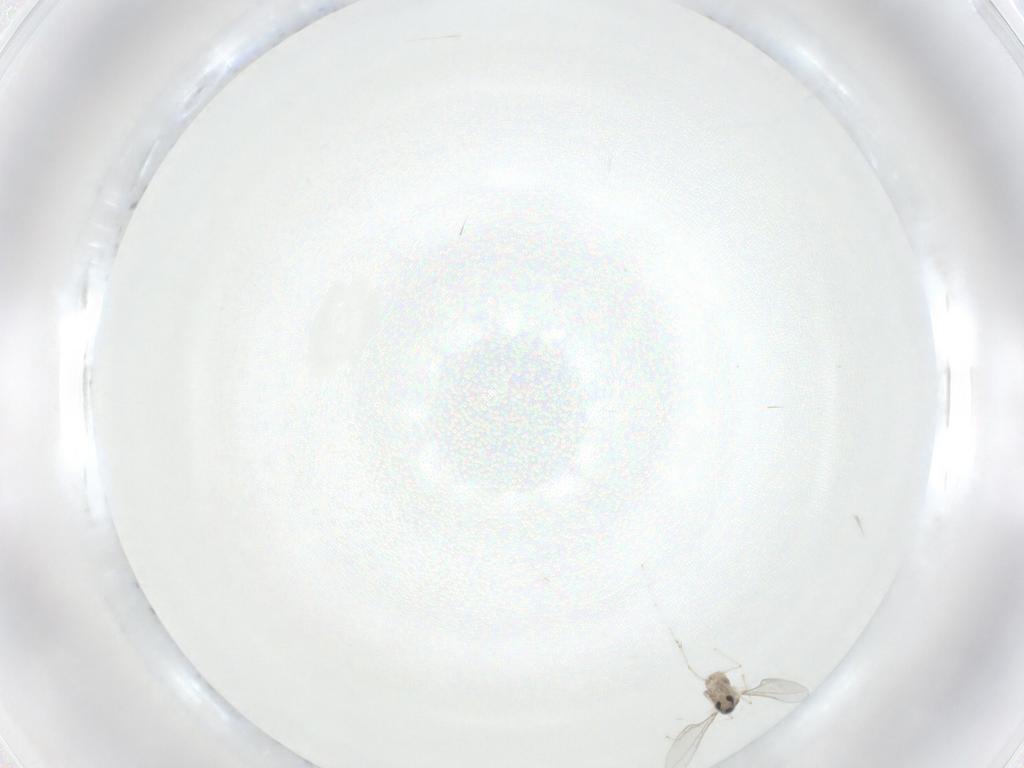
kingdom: Animalia
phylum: Arthropoda
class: Insecta
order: Diptera
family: Cecidomyiidae
